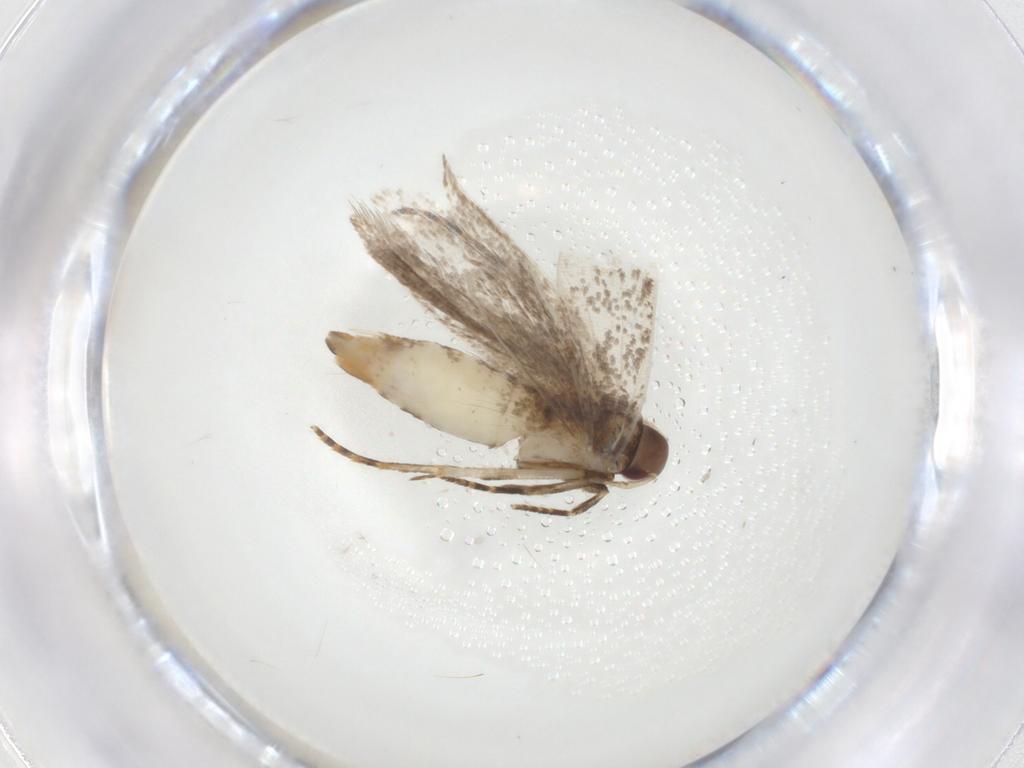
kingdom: Animalia
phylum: Arthropoda
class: Insecta
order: Lepidoptera
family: Gelechiidae
